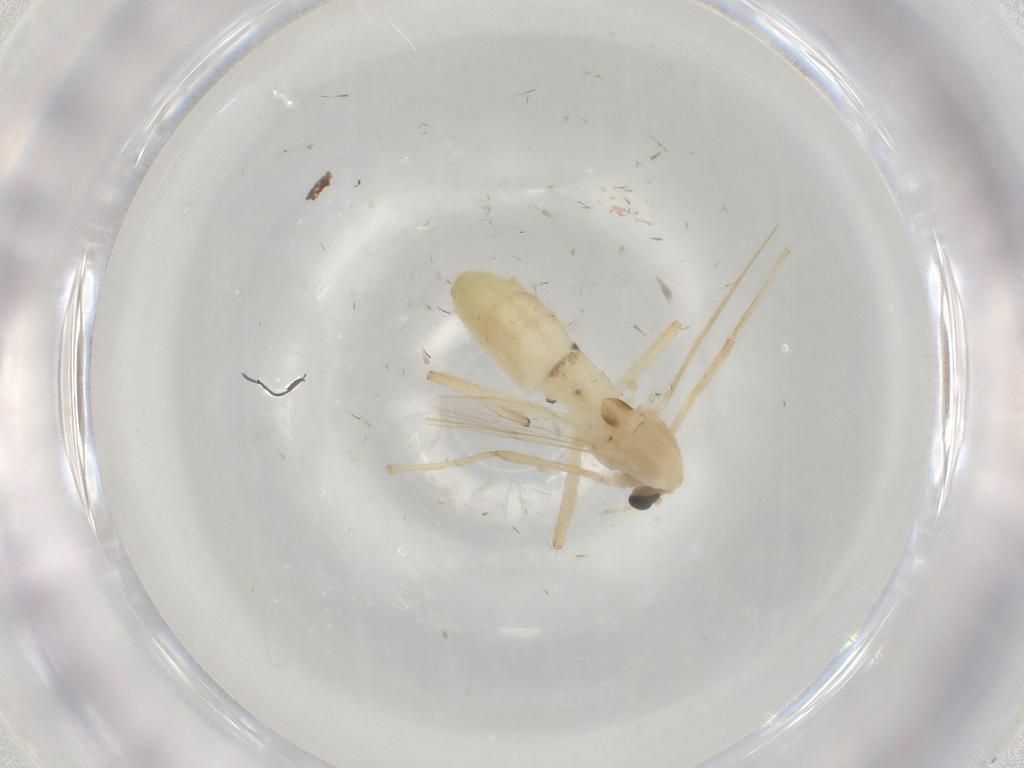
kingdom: Animalia
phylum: Arthropoda
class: Insecta
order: Diptera
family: Chironomidae
